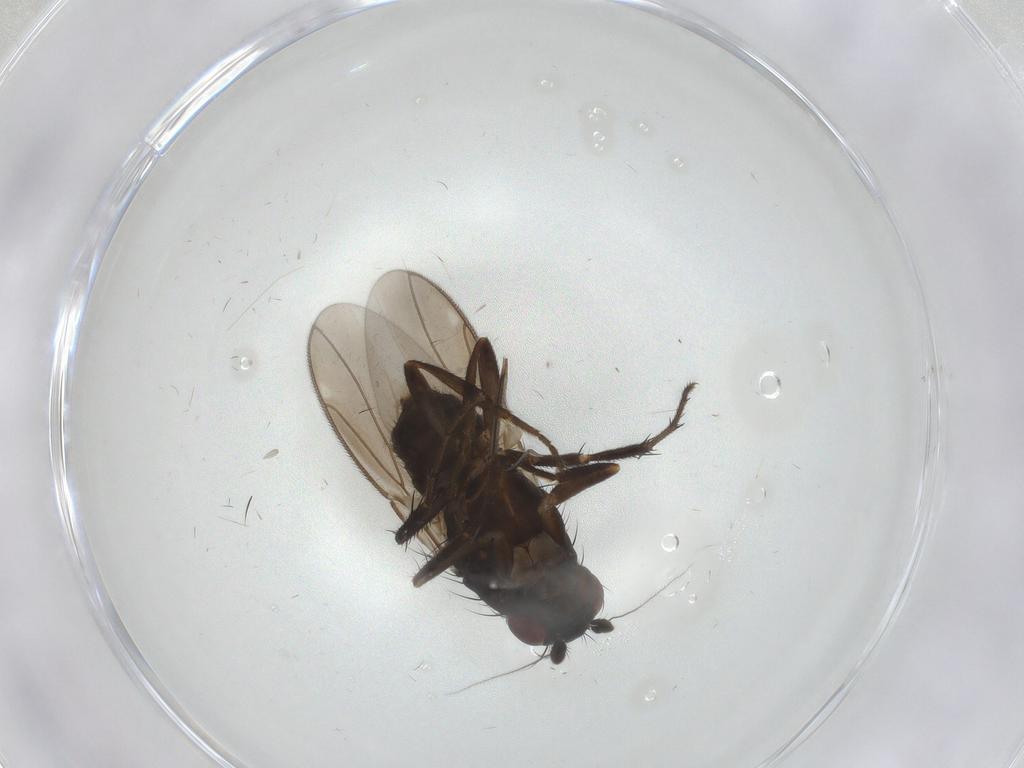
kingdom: Animalia
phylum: Arthropoda
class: Insecta
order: Diptera
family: Sphaeroceridae
